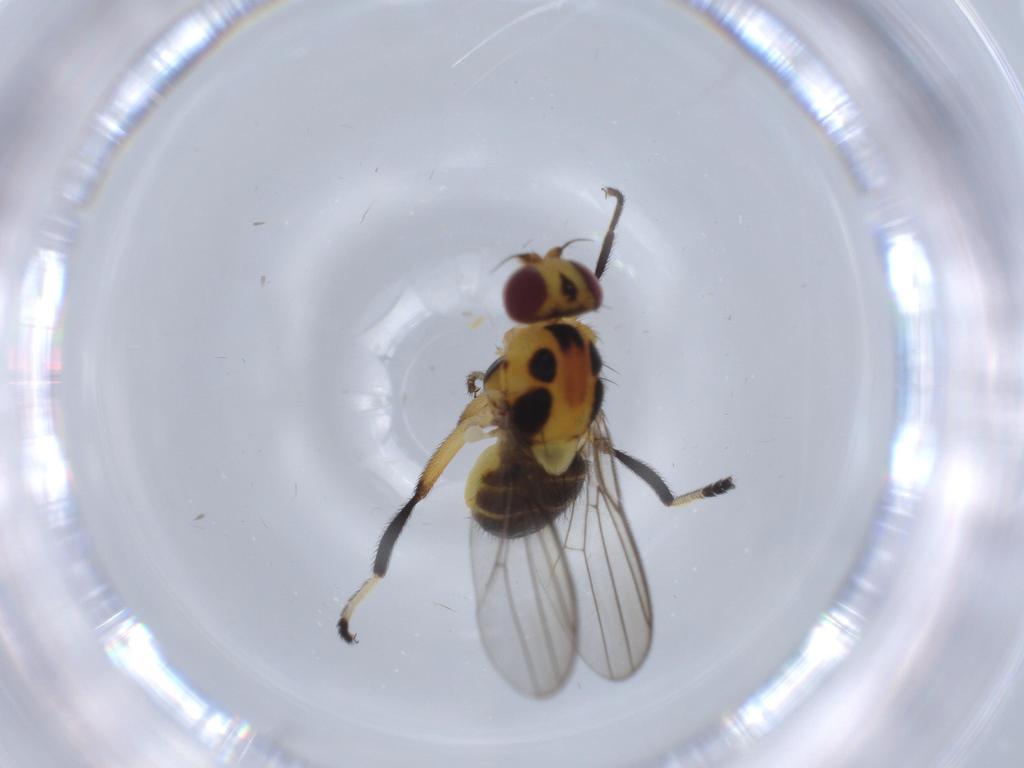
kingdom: Animalia
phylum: Arthropoda
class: Insecta
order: Diptera
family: Chloropidae
